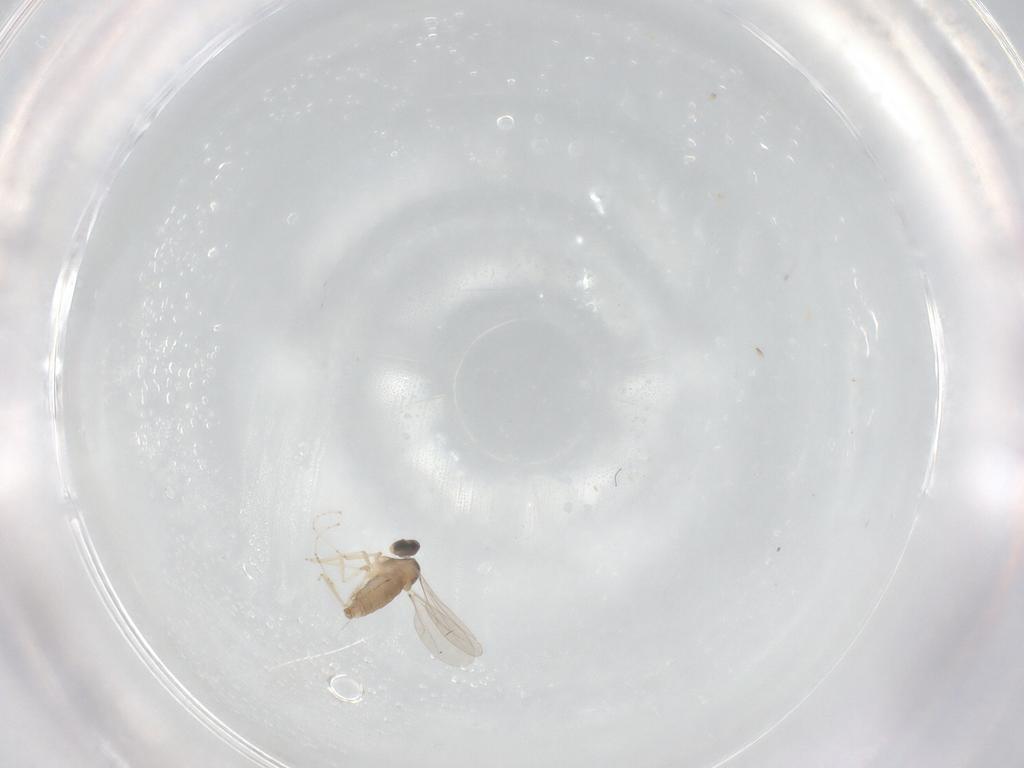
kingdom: Animalia
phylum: Arthropoda
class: Insecta
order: Diptera
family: Cecidomyiidae
